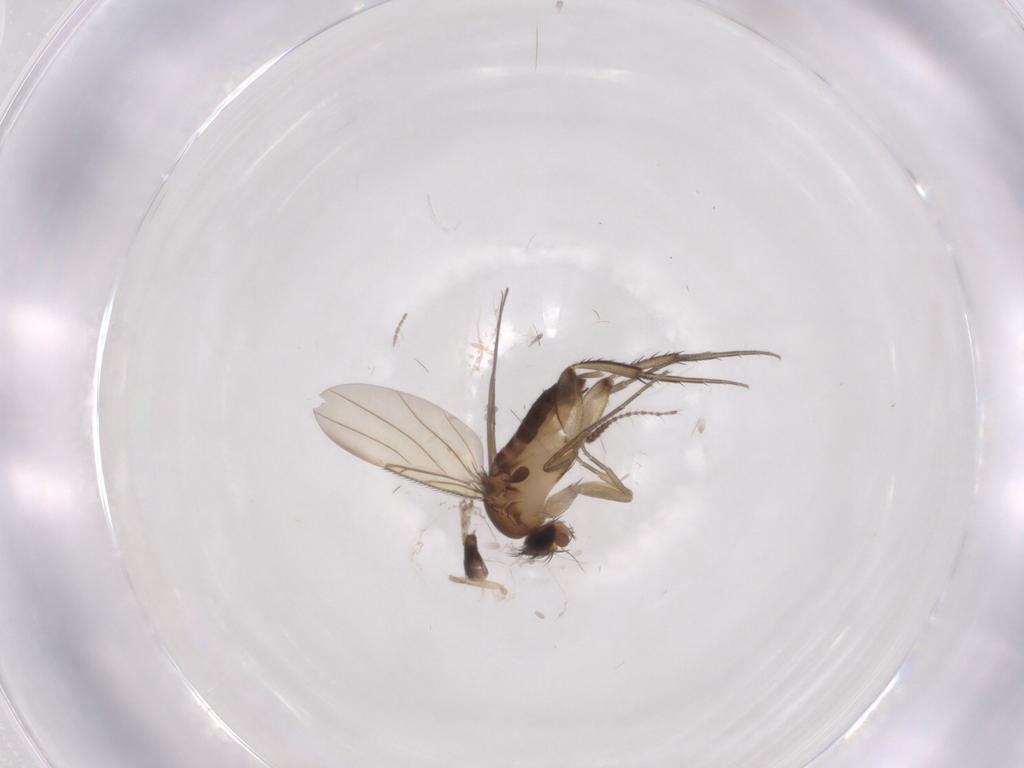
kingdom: Animalia
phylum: Arthropoda
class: Insecta
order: Diptera
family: Phoridae
